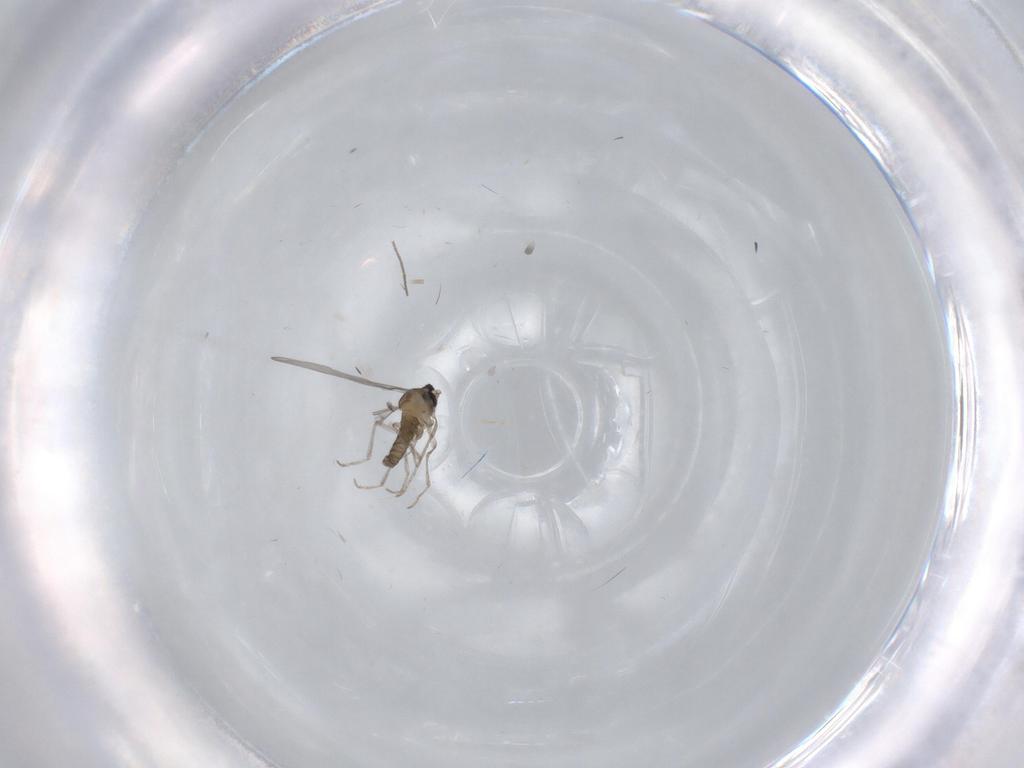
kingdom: Animalia
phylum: Arthropoda
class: Insecta
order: Diptera
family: Cecidomyiidae
